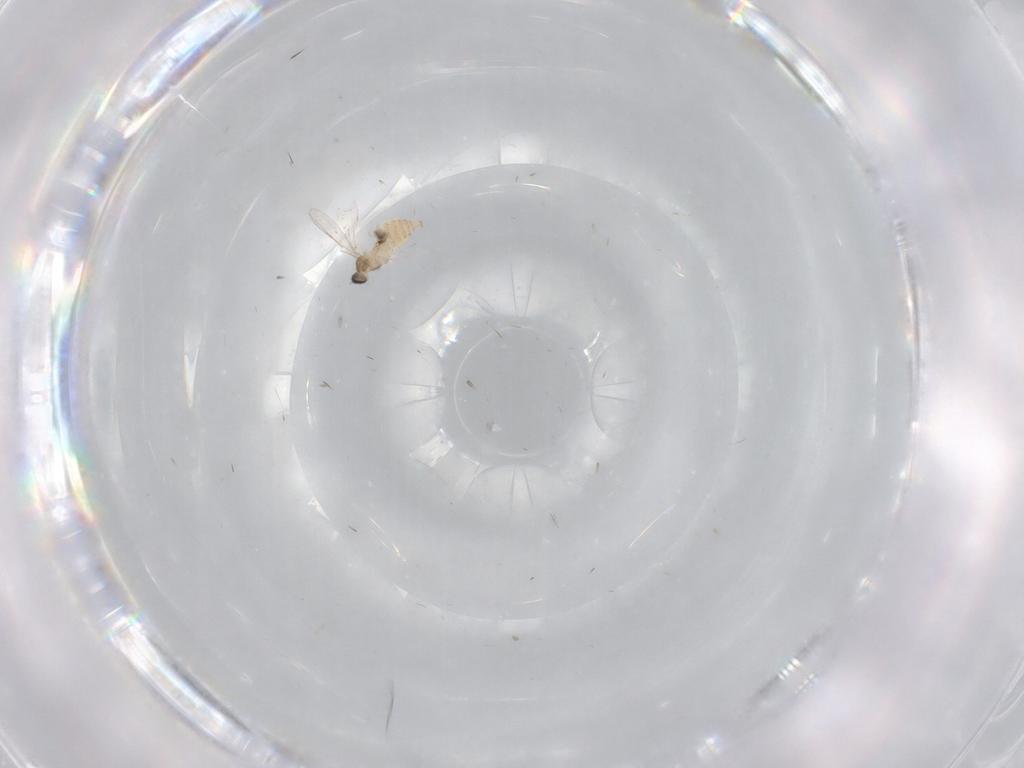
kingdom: Animalia
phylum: Arthropoda
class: Insecta
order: Diptera
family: Cecidomyiidae
